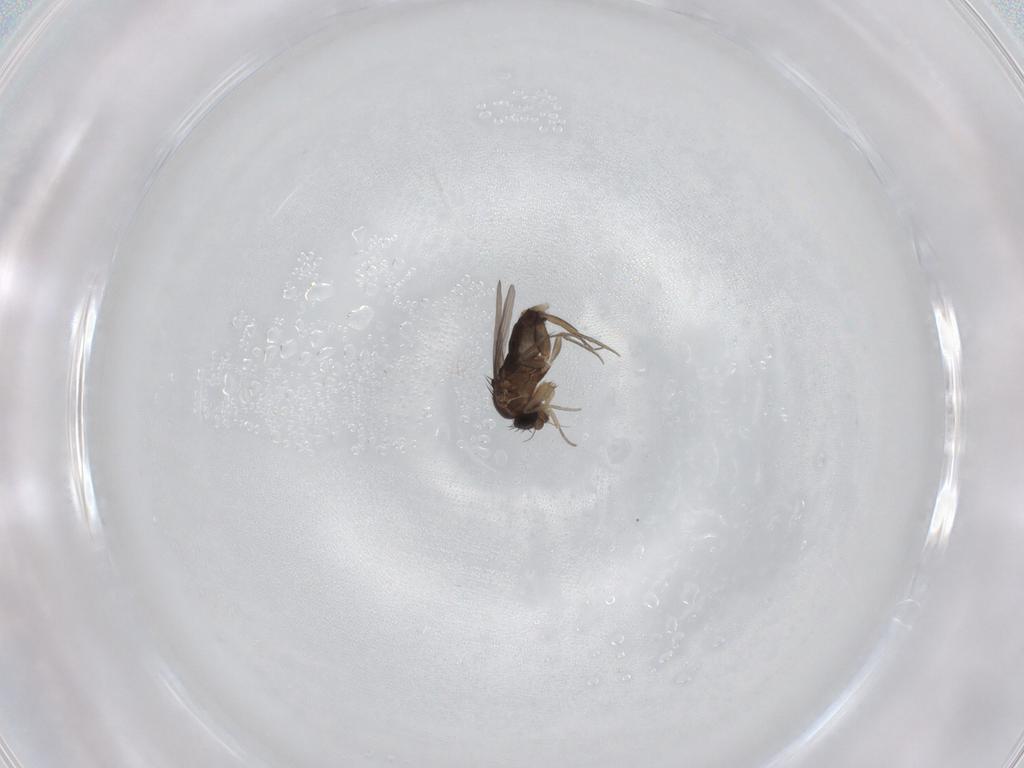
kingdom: Animalia
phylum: Arthropoda
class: Insecta
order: Diptera
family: Phoridae
